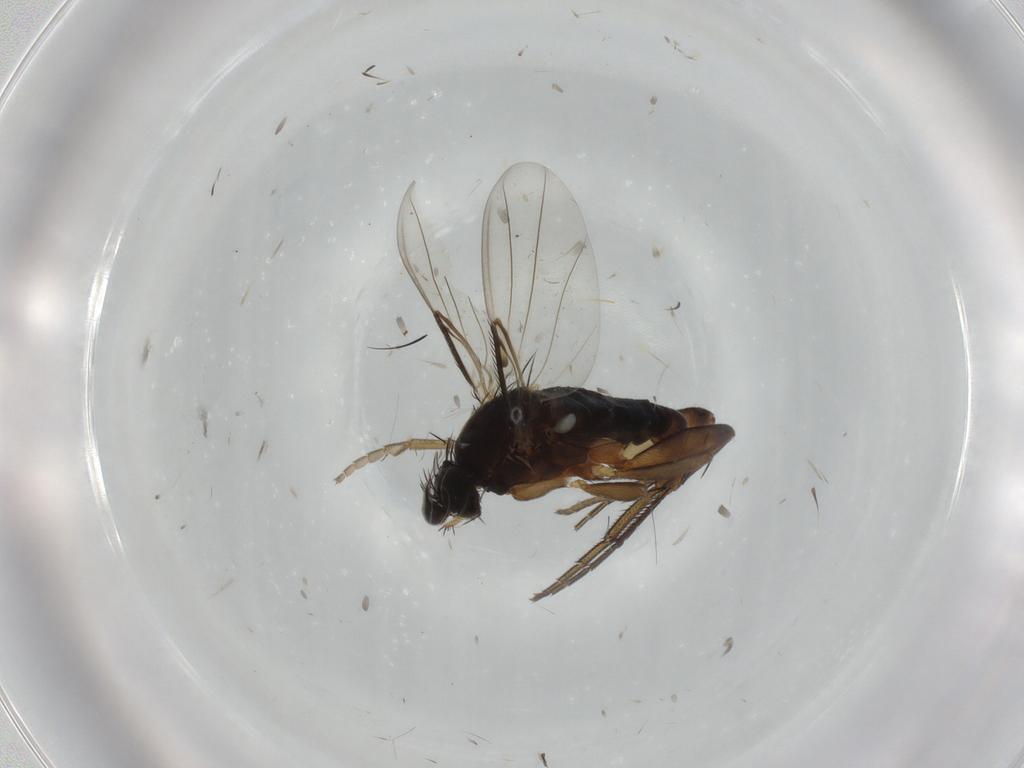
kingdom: Animalia
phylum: Arthropoda
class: Insecta
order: Diptera
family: Phoridae
